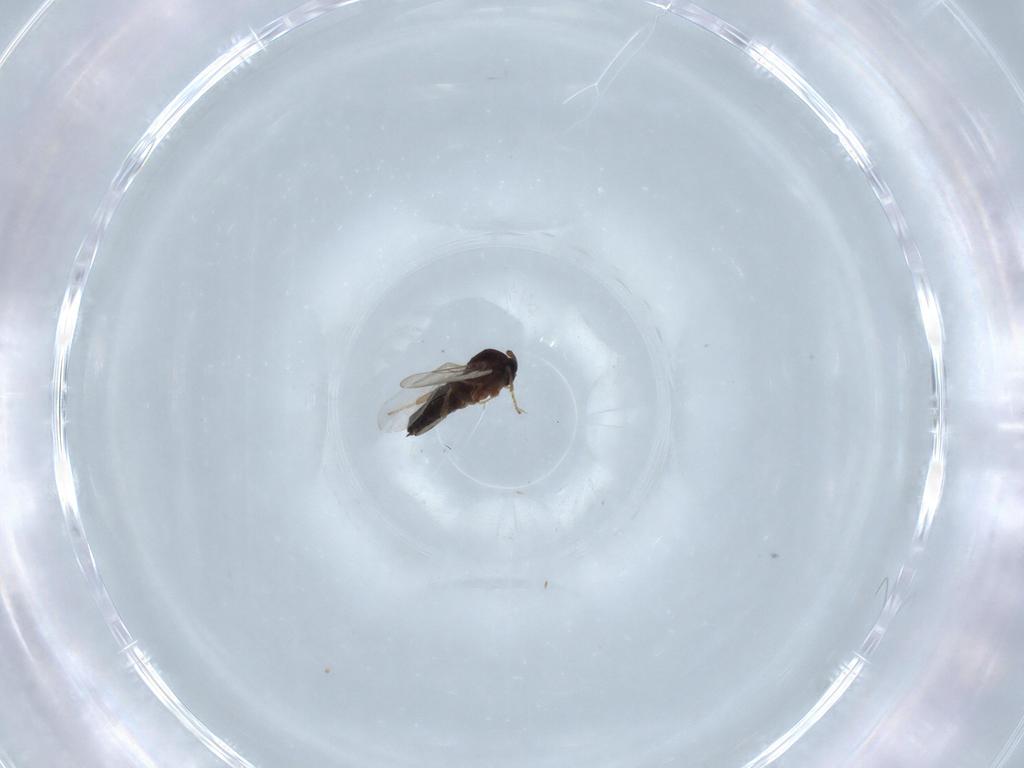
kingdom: Animalia
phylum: Arthropoda
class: Insecta
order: Diptera
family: Scatopsidae
